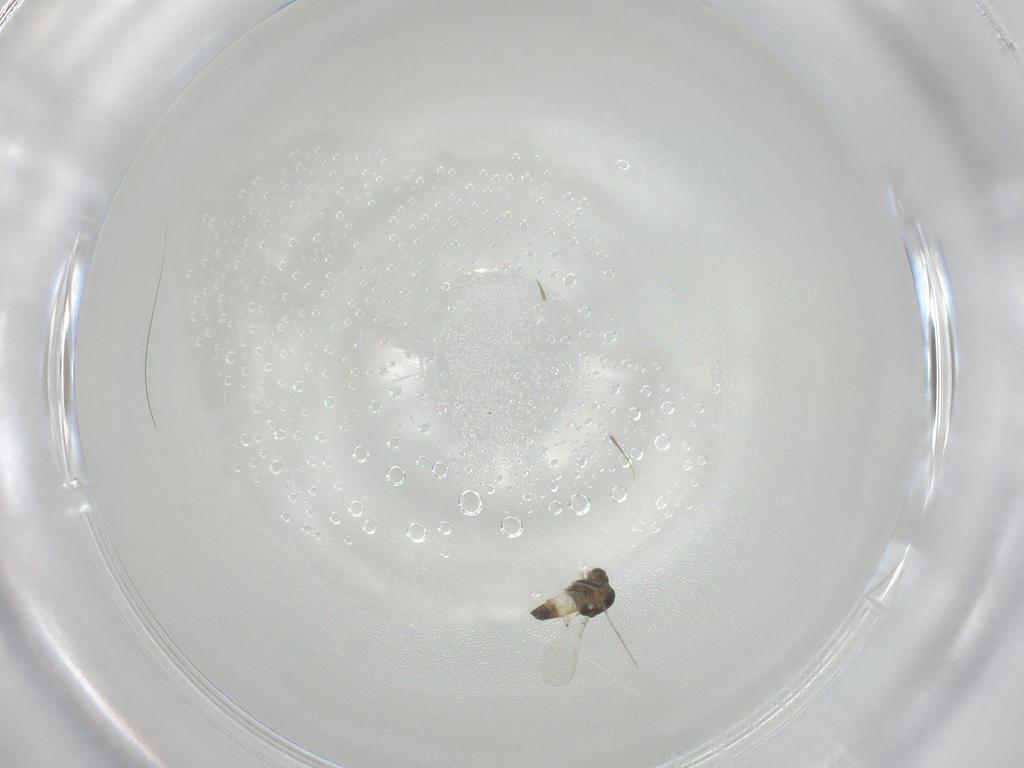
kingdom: Animalia
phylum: Arthropoda
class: Insecta
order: Diptera
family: Chironomidae
